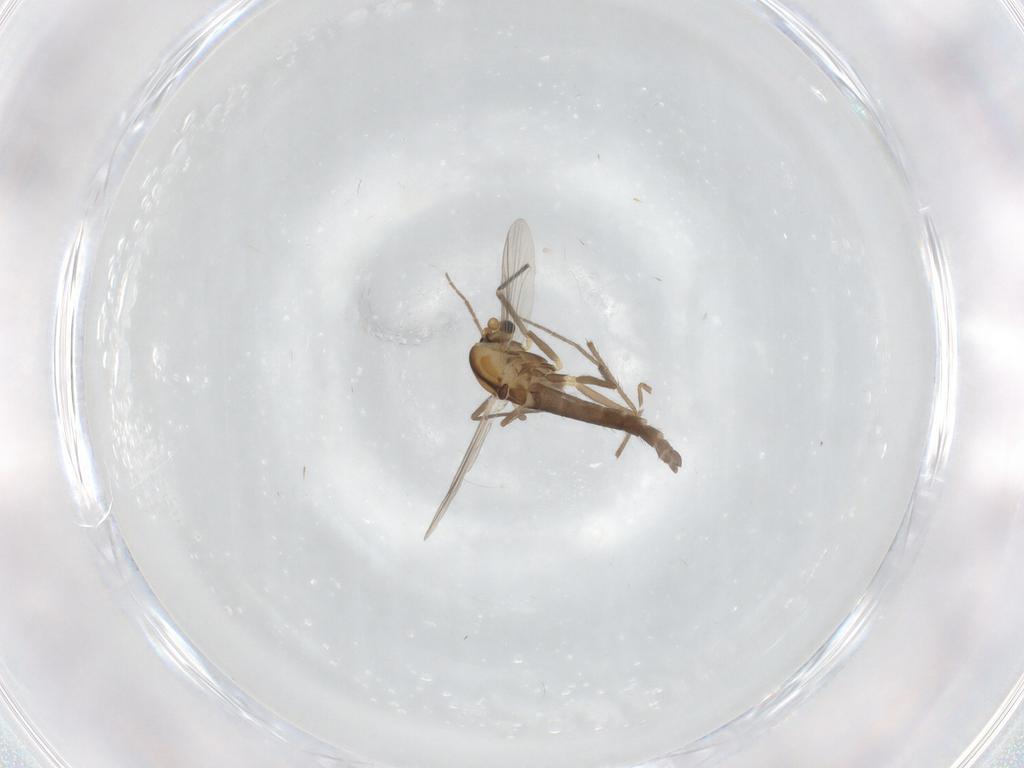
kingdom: Animalia
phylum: Arthropoda
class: Insecta
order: Diptera
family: Chironomidae
